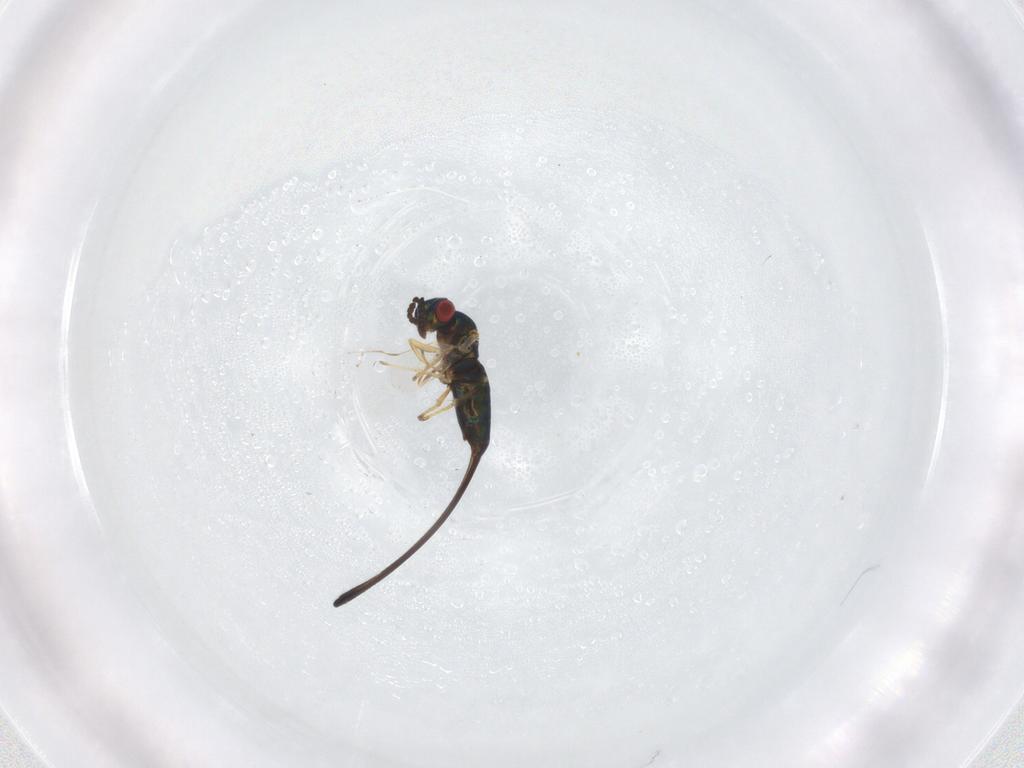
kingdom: Animalia
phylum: Arthropoda
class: Insecta
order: Hymenoptera
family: Pteromalidae
